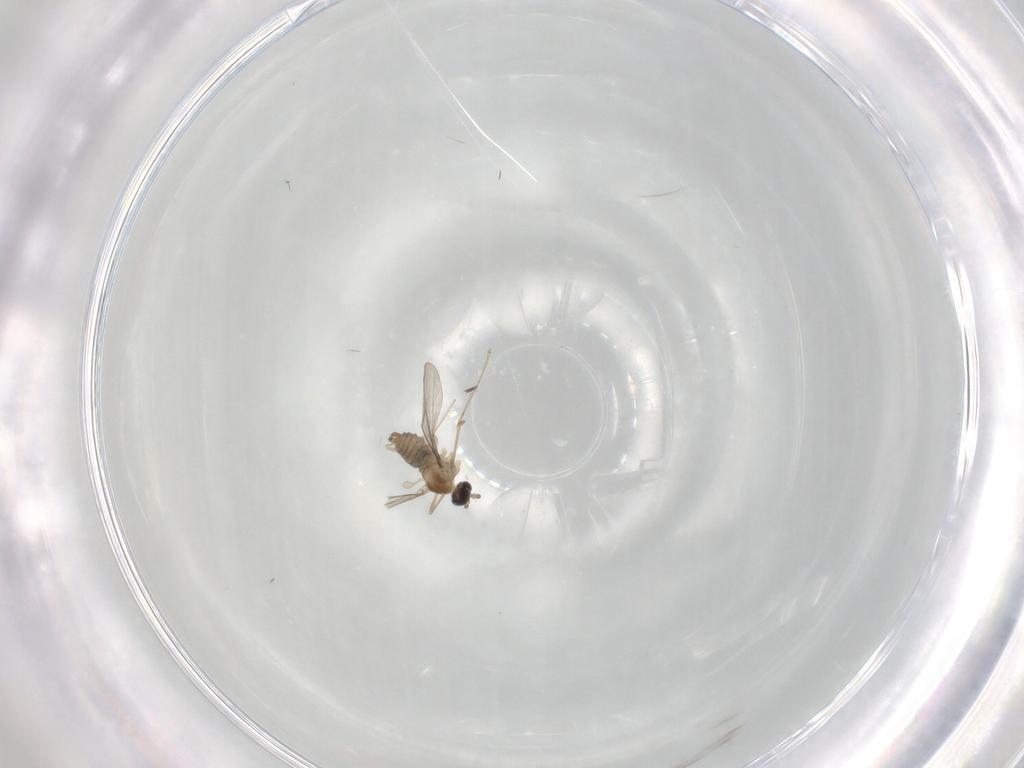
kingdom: Animalia
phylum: Arthropoda
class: Insecta
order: Diptera
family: Cecidomyiidae
